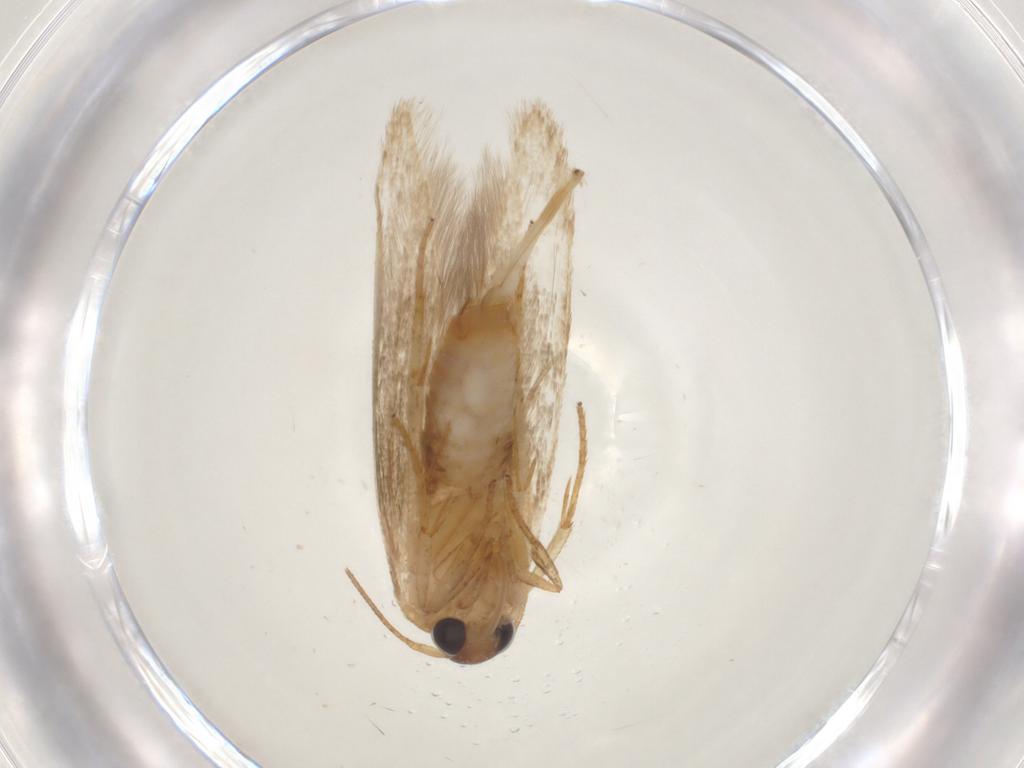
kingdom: Animalia
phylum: Arthropoda
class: Insecta
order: Lepidoptera
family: Blastobasidae
